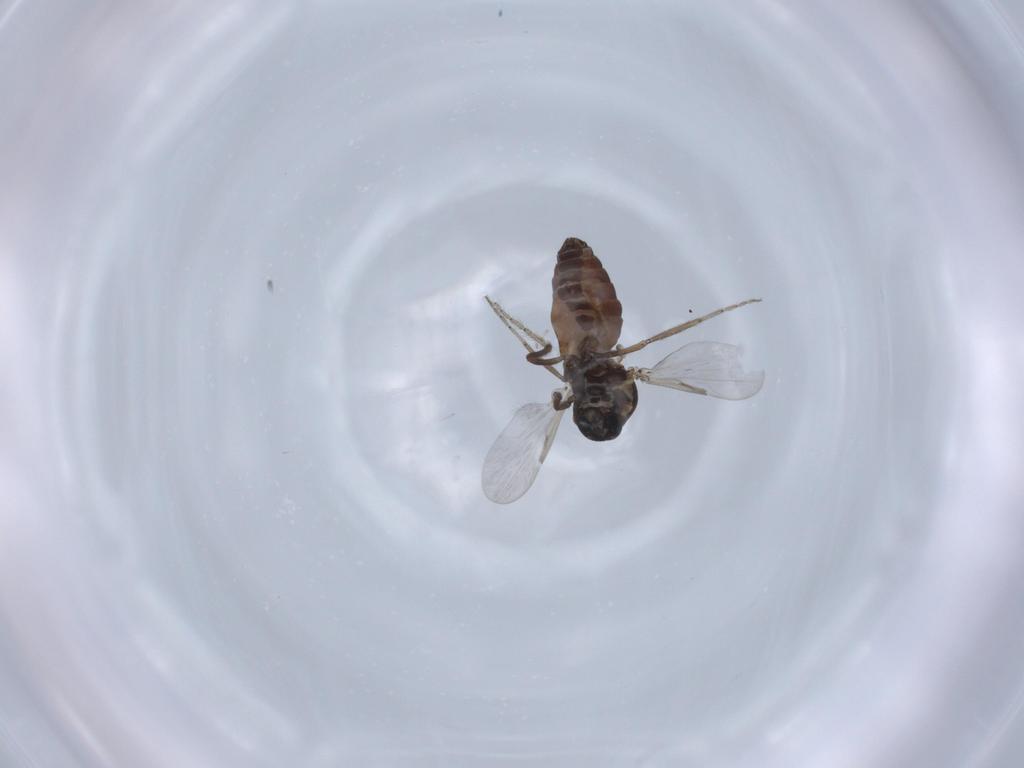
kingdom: Animalia
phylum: Arthropoda
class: Insecta
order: Diptera
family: Ceratopogonidae
